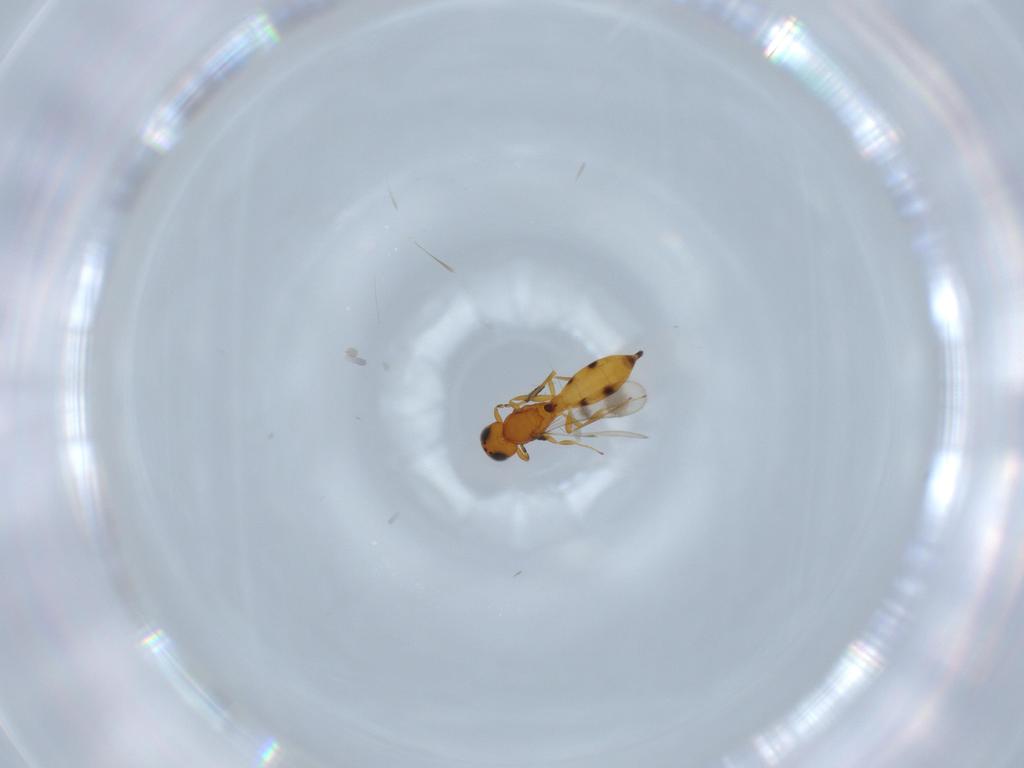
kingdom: Animalia
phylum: Arthropoda
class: Insecta
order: Hymenoptera
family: Scelionidae
